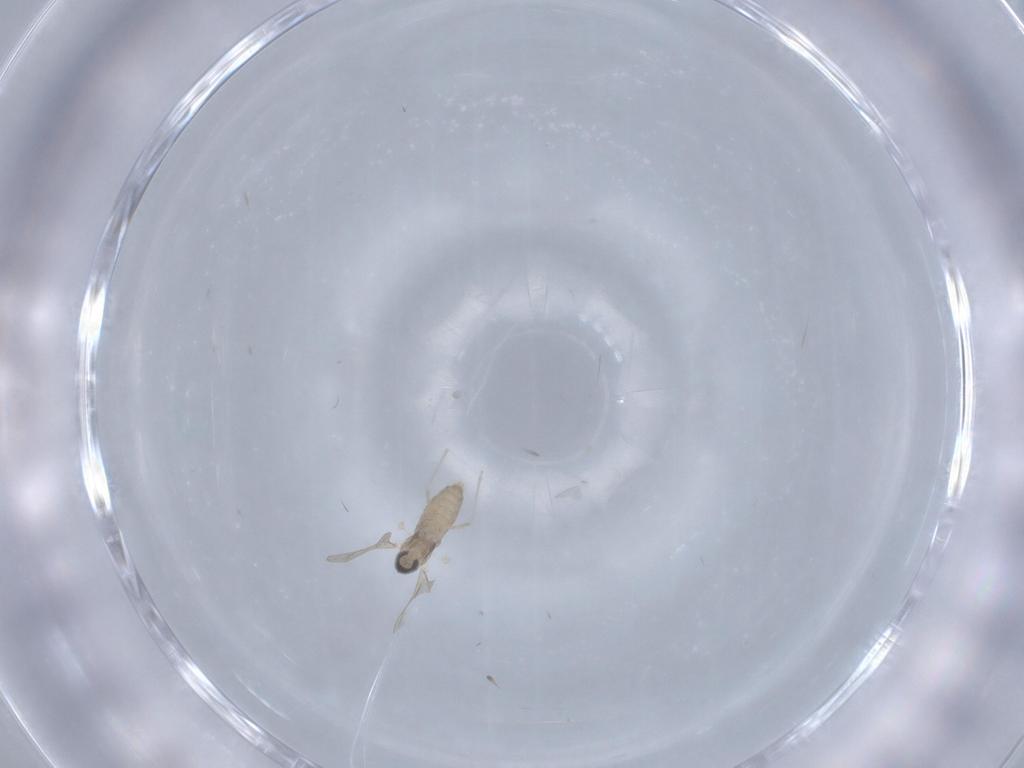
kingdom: Animalia
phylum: Arthropoda
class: Insecta
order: Diptera
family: Cecidomyiidae
